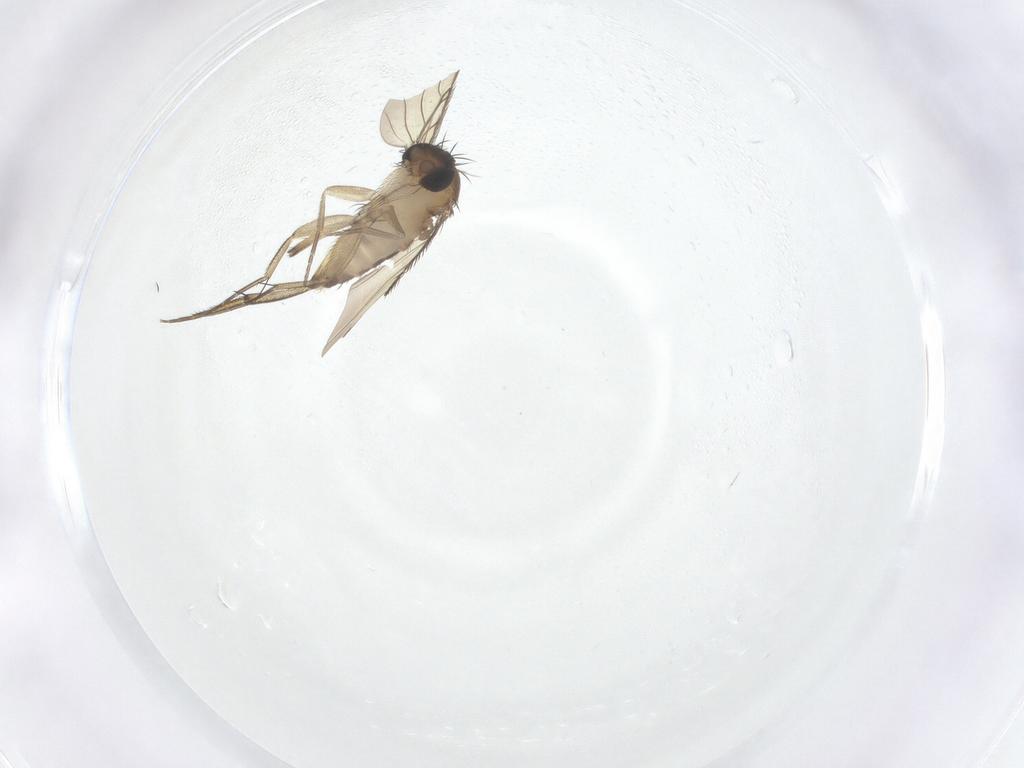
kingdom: Animalia
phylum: Arthropoda
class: Insecta
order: Diptera
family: Phoridae
